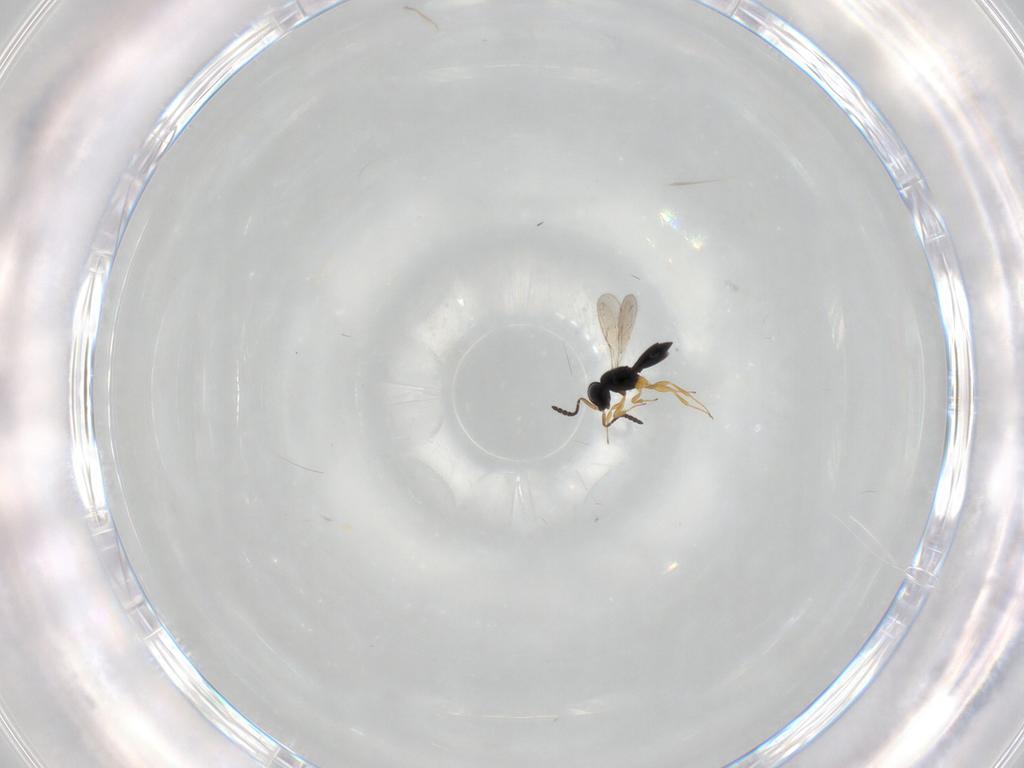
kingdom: Animalia
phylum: Arthropoda
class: Insecta
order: Hymenoptera
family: Scelionidae
